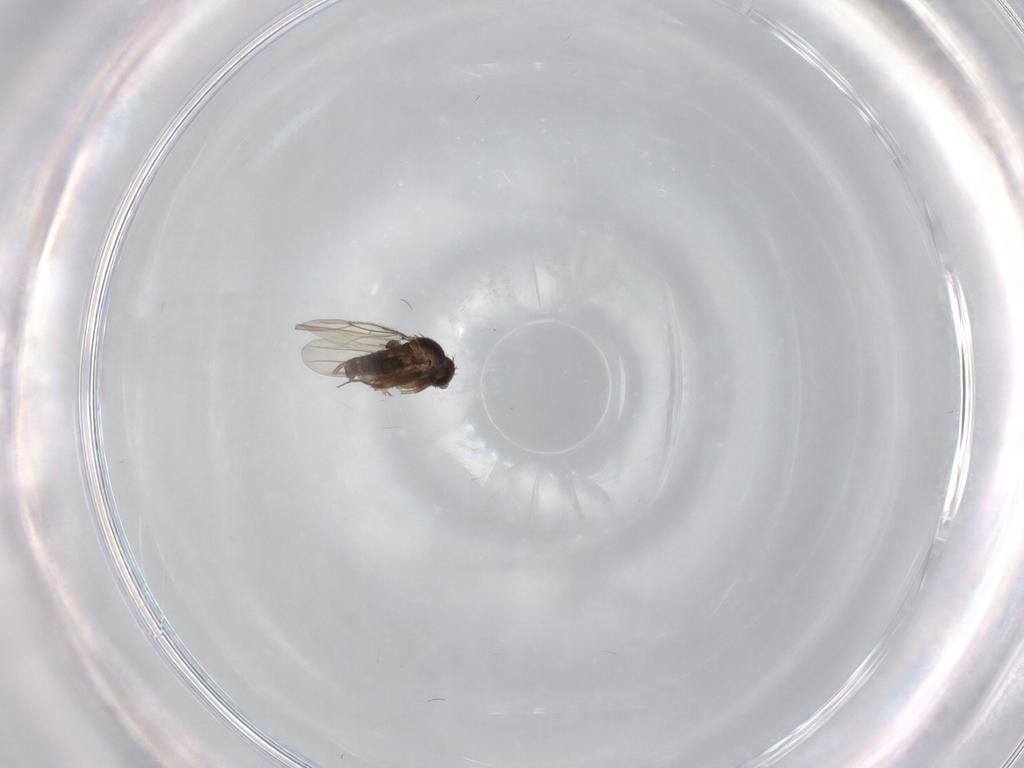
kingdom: Animalia
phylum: Arthropoda
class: Insecta
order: Diptera
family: Phoridae
